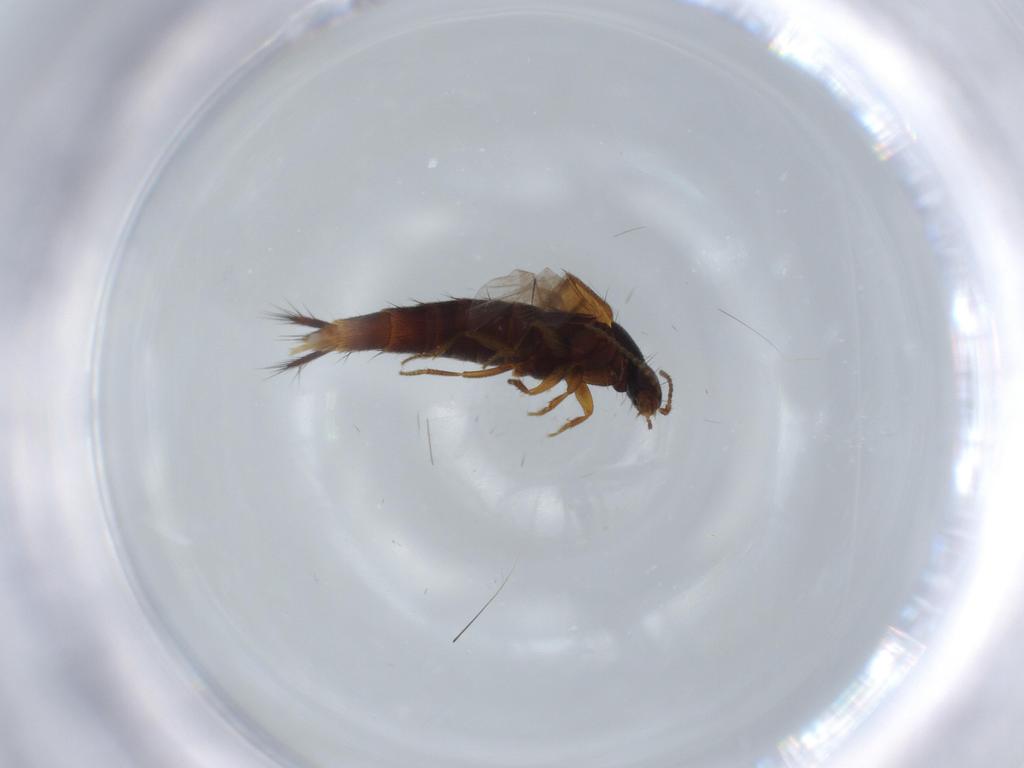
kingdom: Animalia
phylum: Arthropoda
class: Insecta
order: Coleoptera
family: Staphylinidae
